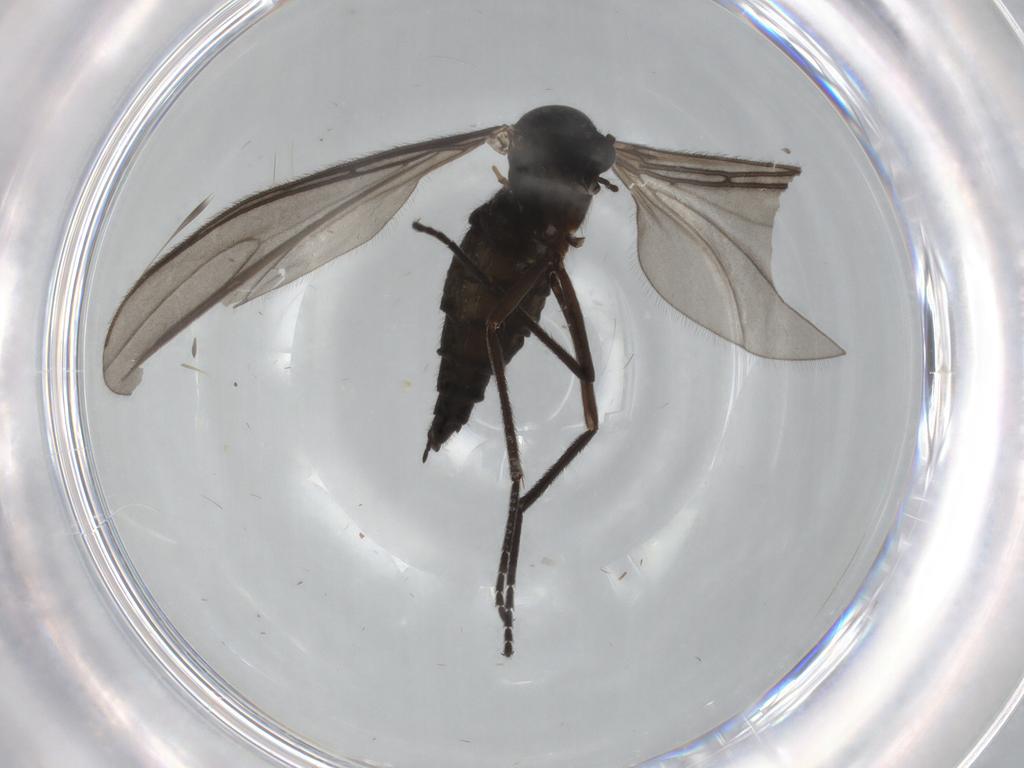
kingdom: Animalia
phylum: Arthropoda
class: Insecta
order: Diptera
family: Sciaridae
